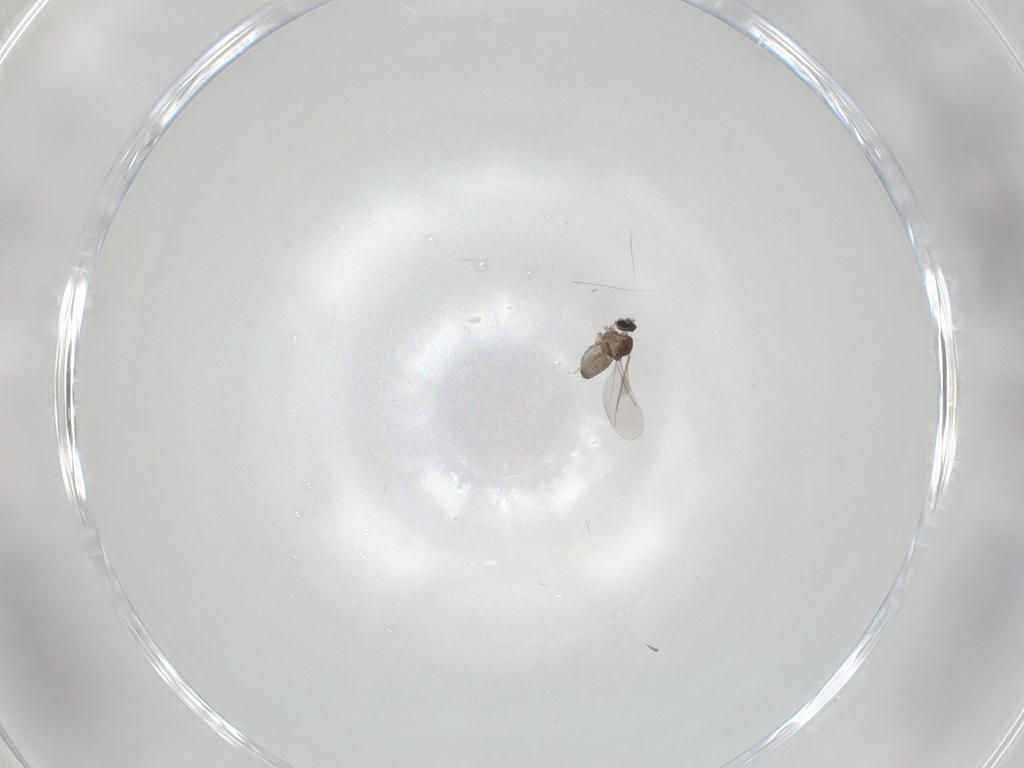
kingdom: Animalia
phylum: Arthropoda
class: Insecta
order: Diptera
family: Cecidomyiidae
